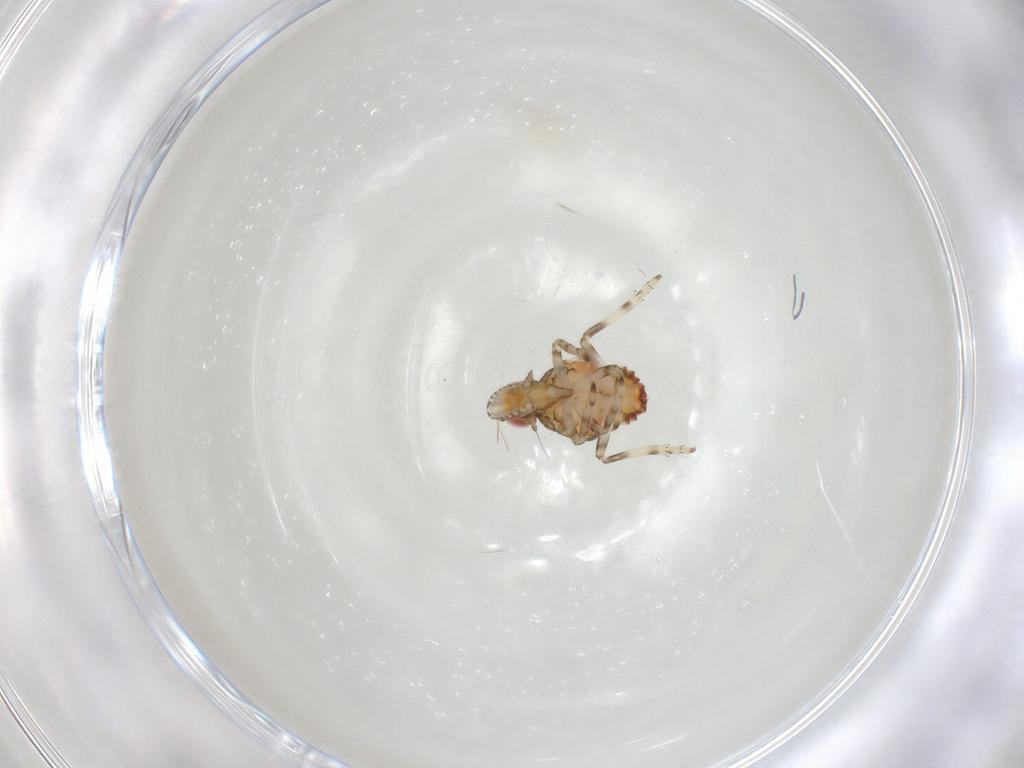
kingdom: Animalia
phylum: Arthropoda
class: Insecta
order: Hemiptera
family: Tropiduchidae
